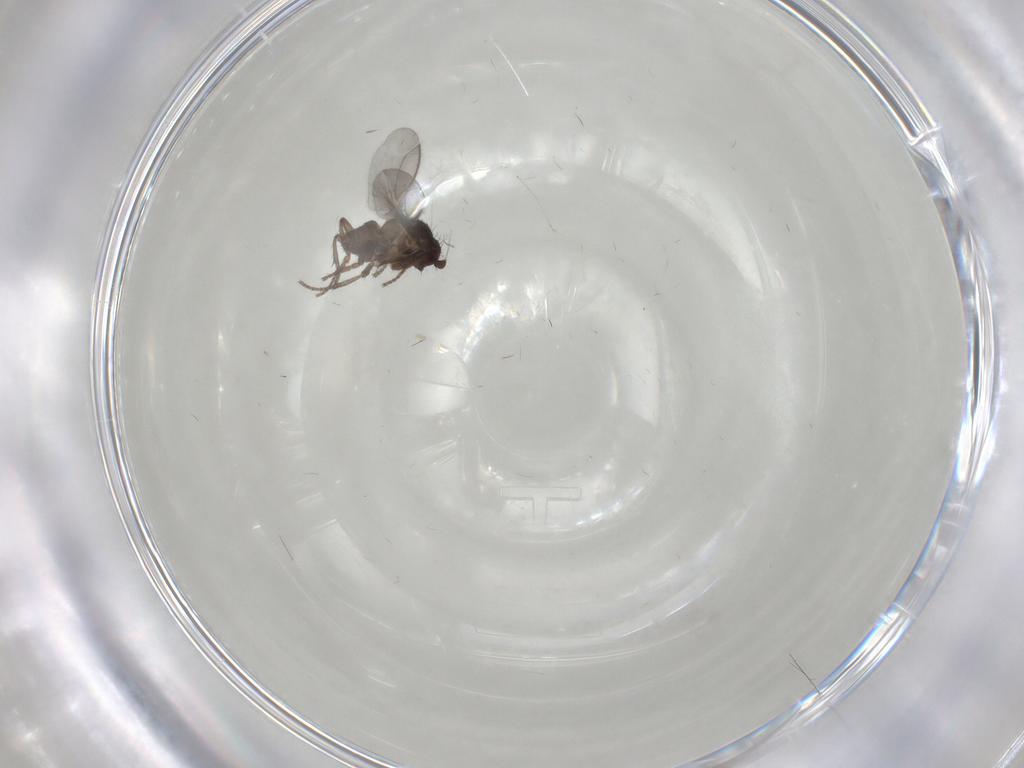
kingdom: Animalia
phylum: Arthropoda
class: Insecta
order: Diptera
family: Sphaeroceridae
